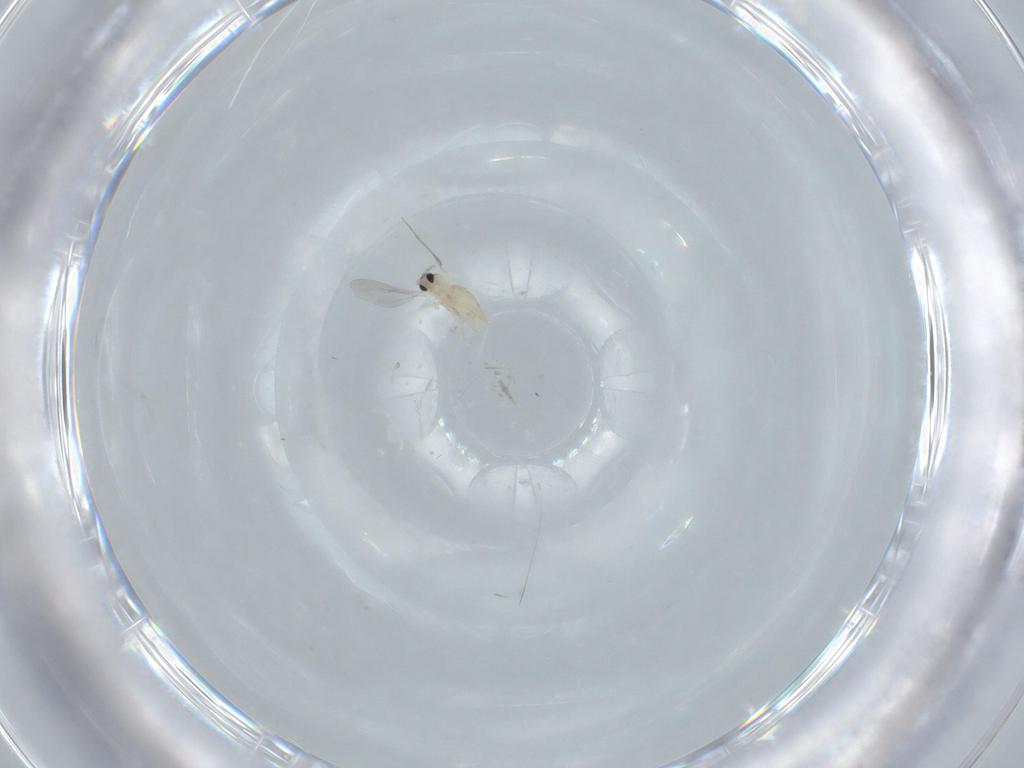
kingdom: Animalia
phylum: Arthropoda
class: Insecta
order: Diptera
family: Cecidomyiidae
